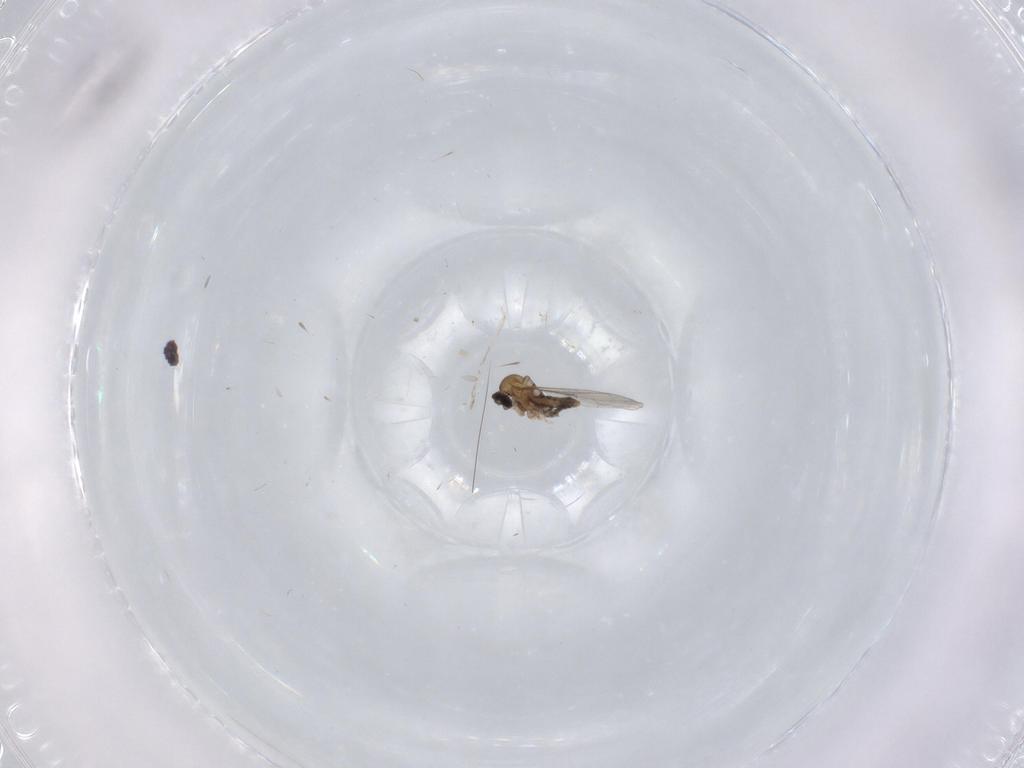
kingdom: Animalia
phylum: Arthropoda
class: Insecta
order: Diptera
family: Cecidomyiidae
